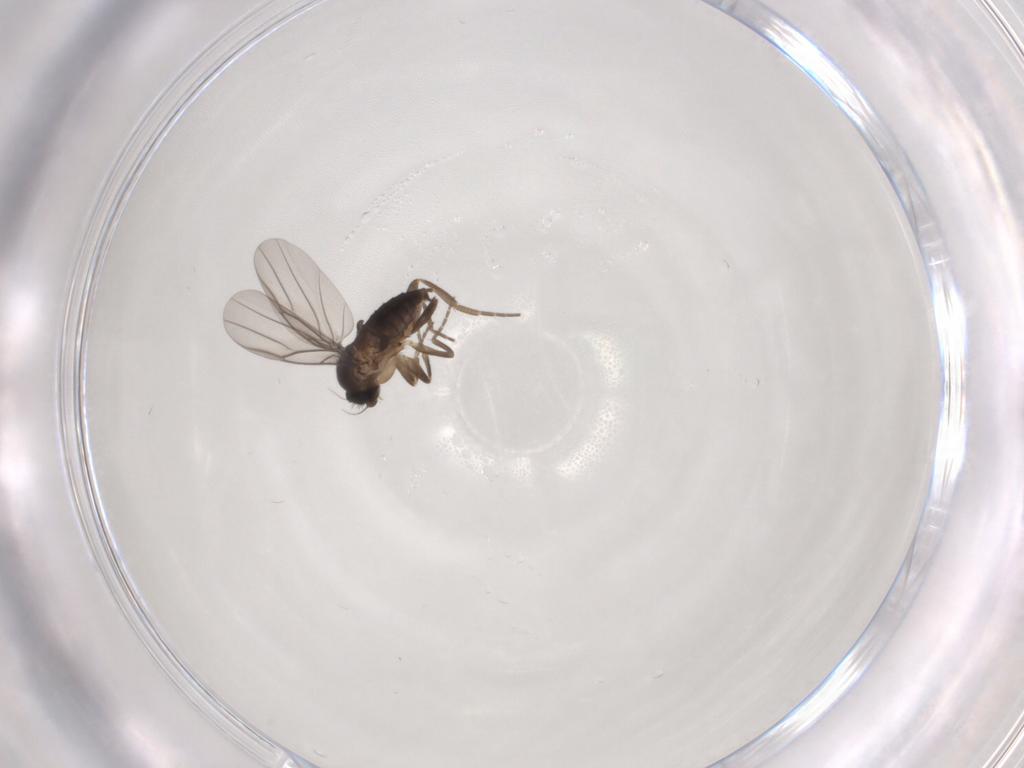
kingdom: Animalia
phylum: Arthropoda
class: Insecta
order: Diptera
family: Phoridae
